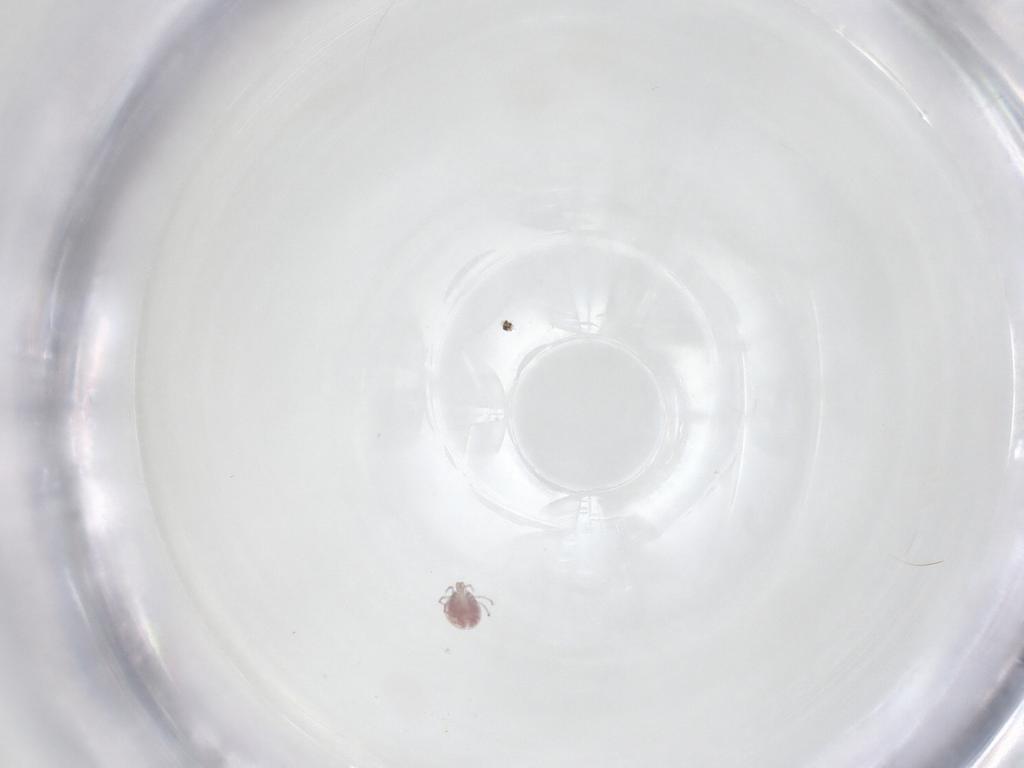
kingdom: Animalia
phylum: Arthropoda
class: Arachnida
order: Trombidiformes
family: Pionidae
